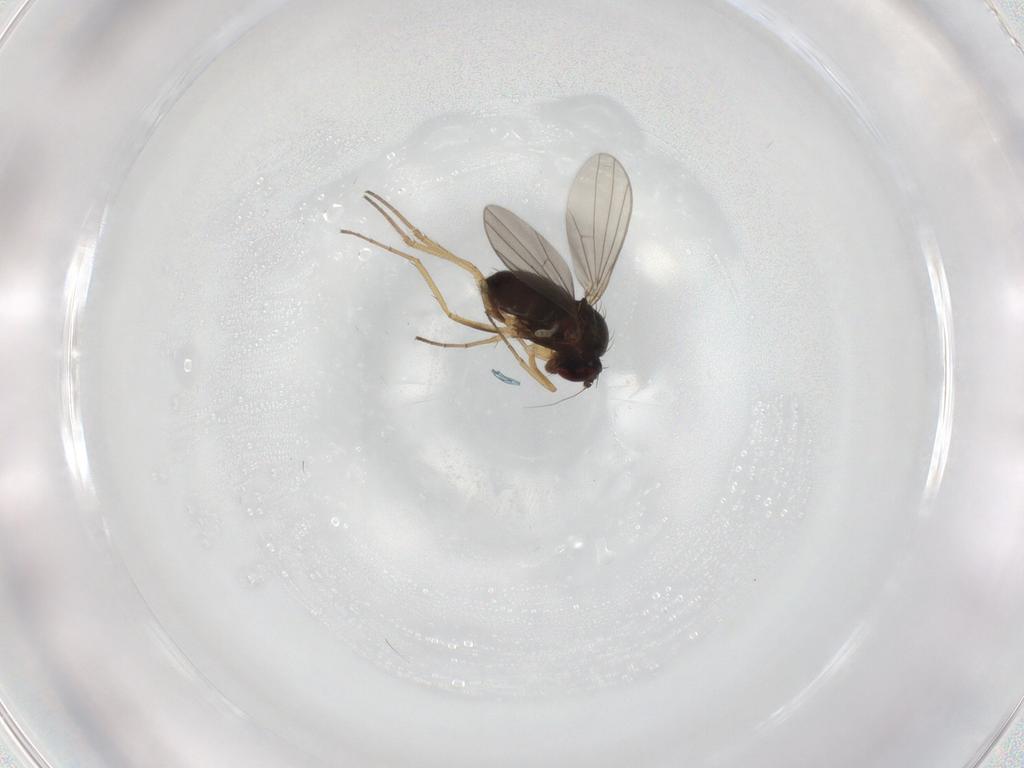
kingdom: Animalia
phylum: Arthropoda
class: Insecta
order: Diptera
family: Dolichopodidae
